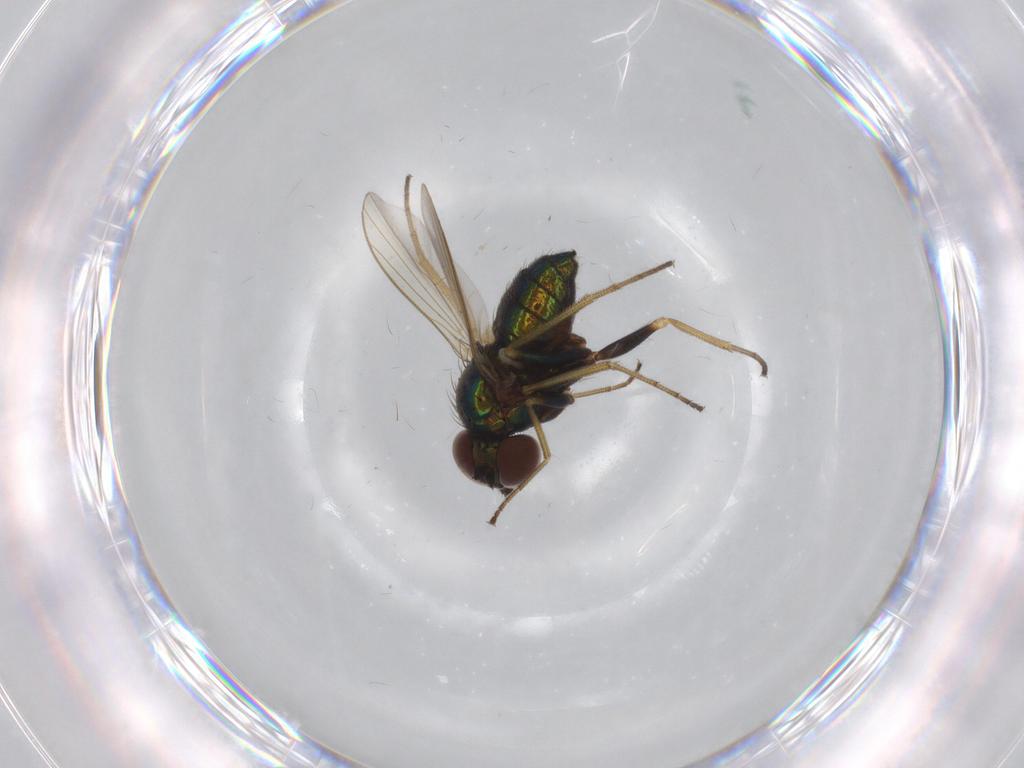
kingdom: Animalia
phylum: Arthropoda
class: Insecta
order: Diptera
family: Dolichopodidae
